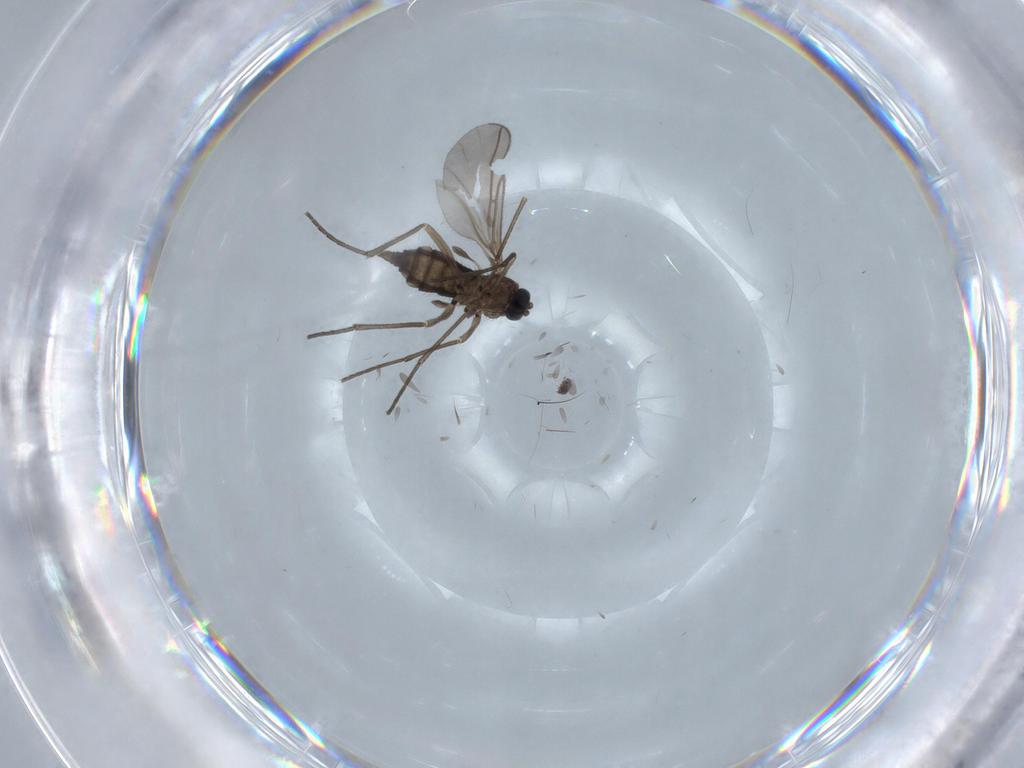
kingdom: Animalia
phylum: Arthropoda
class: Insecta
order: Diptera
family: Sciaridae
